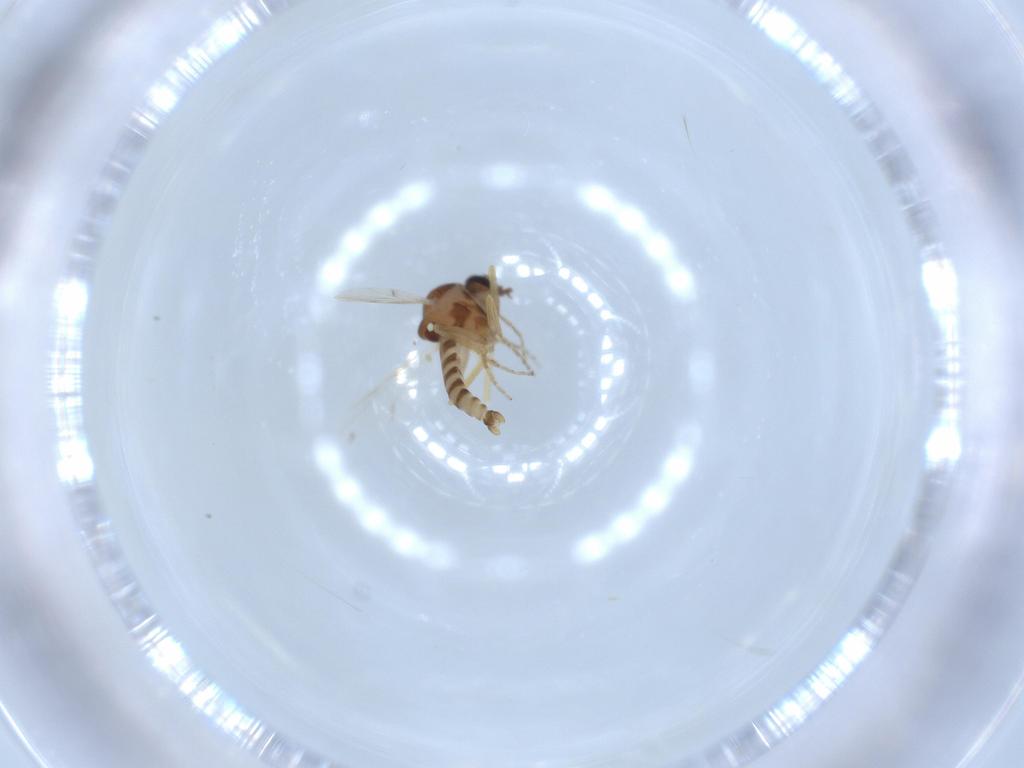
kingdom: Animalia
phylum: Arthropoda
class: Insecta
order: Diptera
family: Ceratopogonidae
